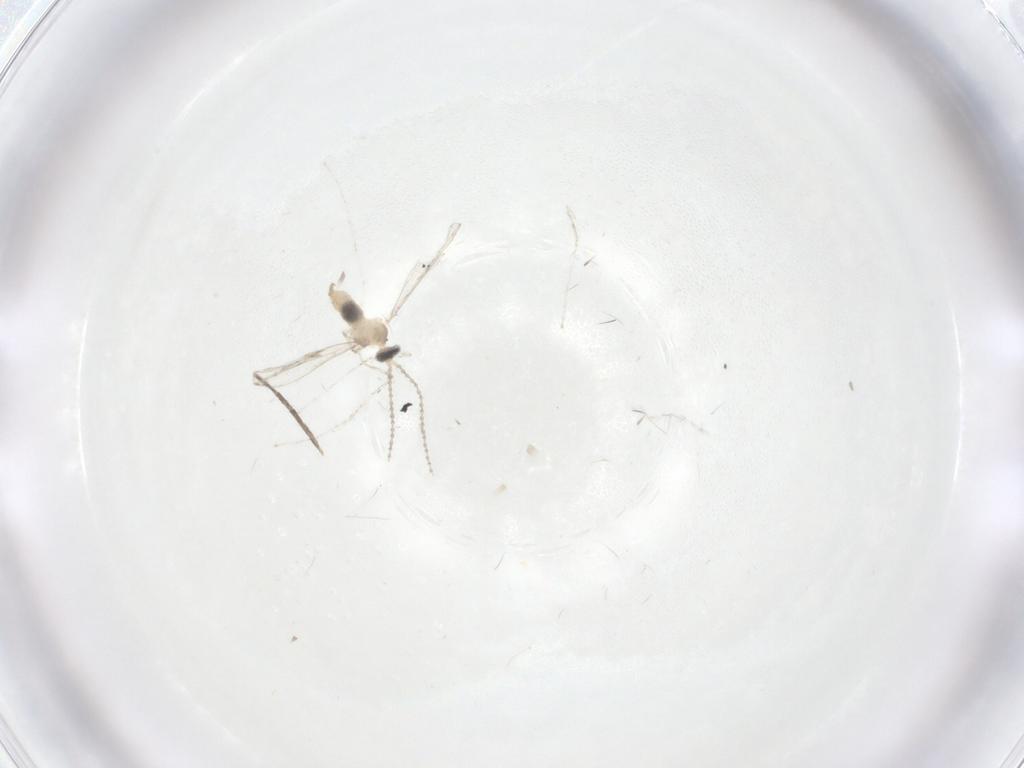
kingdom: Animalia
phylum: Arthropoda
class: Insecta
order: Diptera
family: Cecidomyiidae
